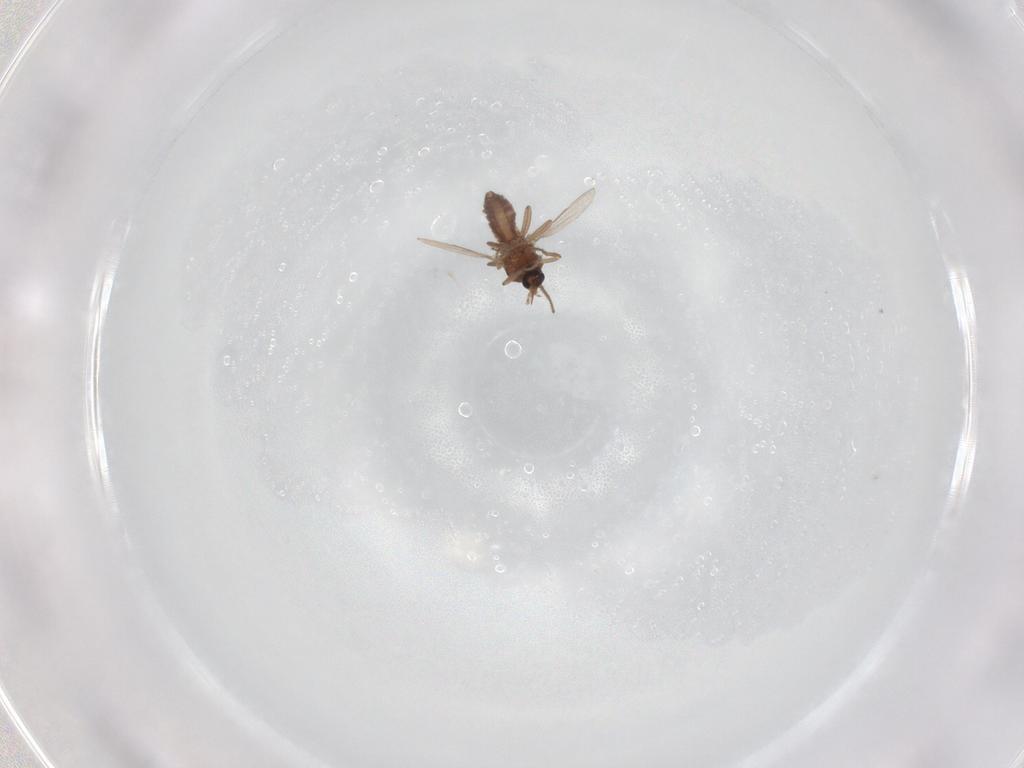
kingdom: Animalia
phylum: Arthropoda
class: Insecta
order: Diptera
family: Ceratopogonidae
